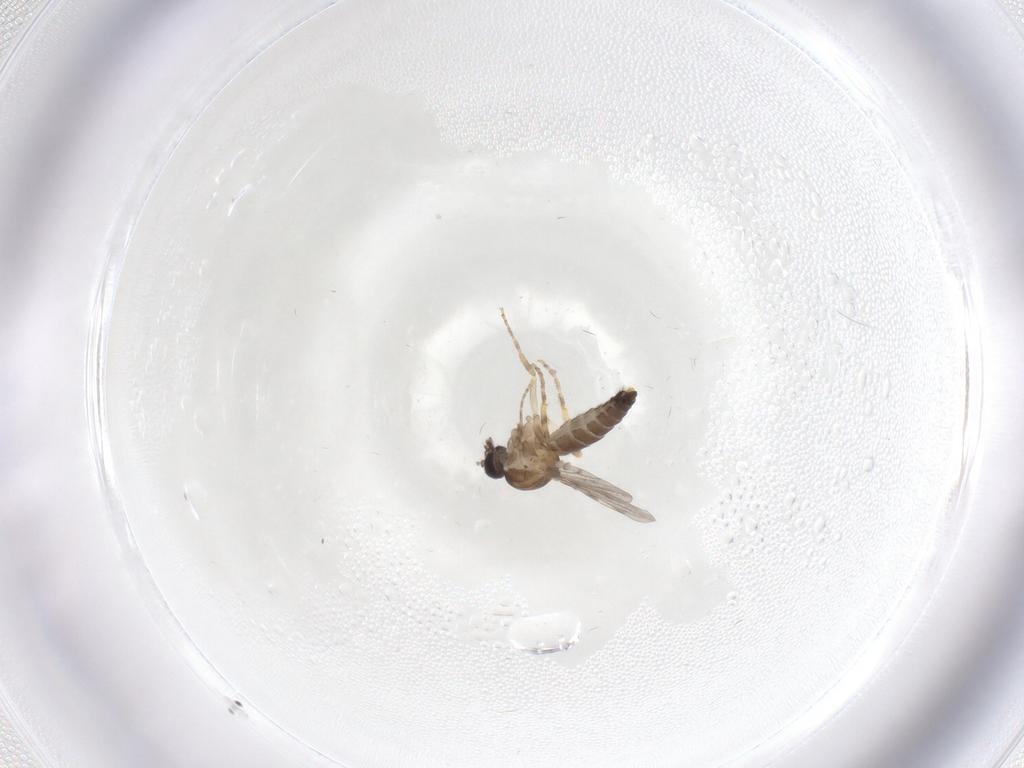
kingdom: Animalia
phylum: Arthropoda
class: Insecta
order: Diptera
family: Ceratopogonidae
